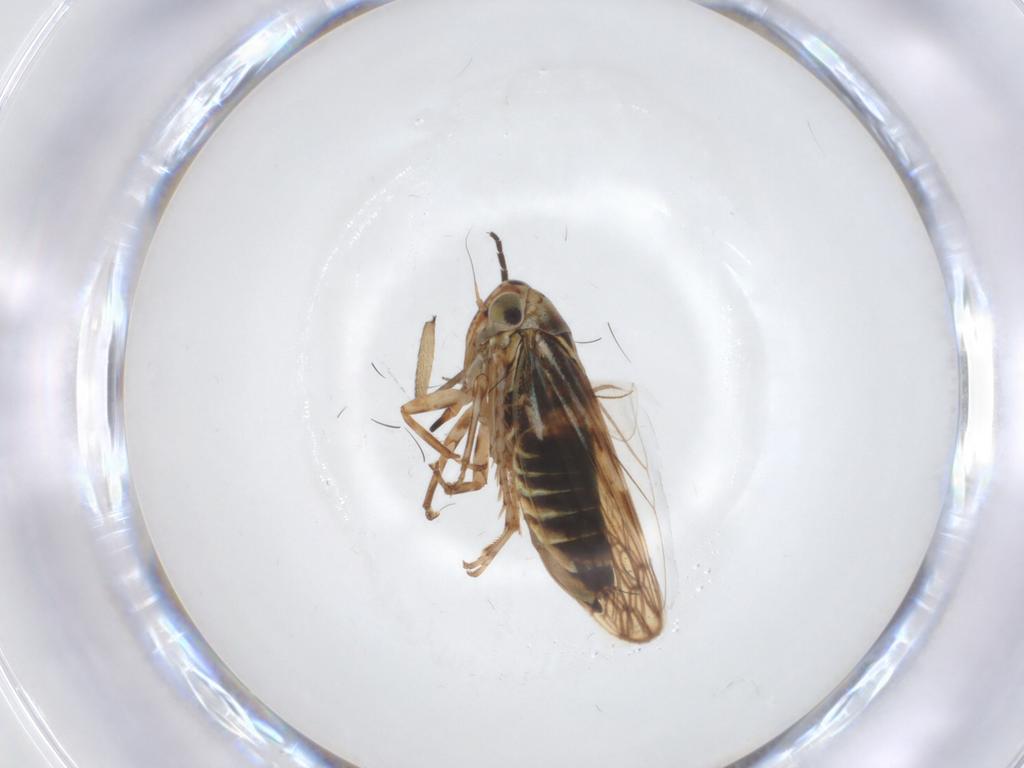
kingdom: Animalia
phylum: Arthropoda
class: Insecta
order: Hemiptera
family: Cicadellidae
